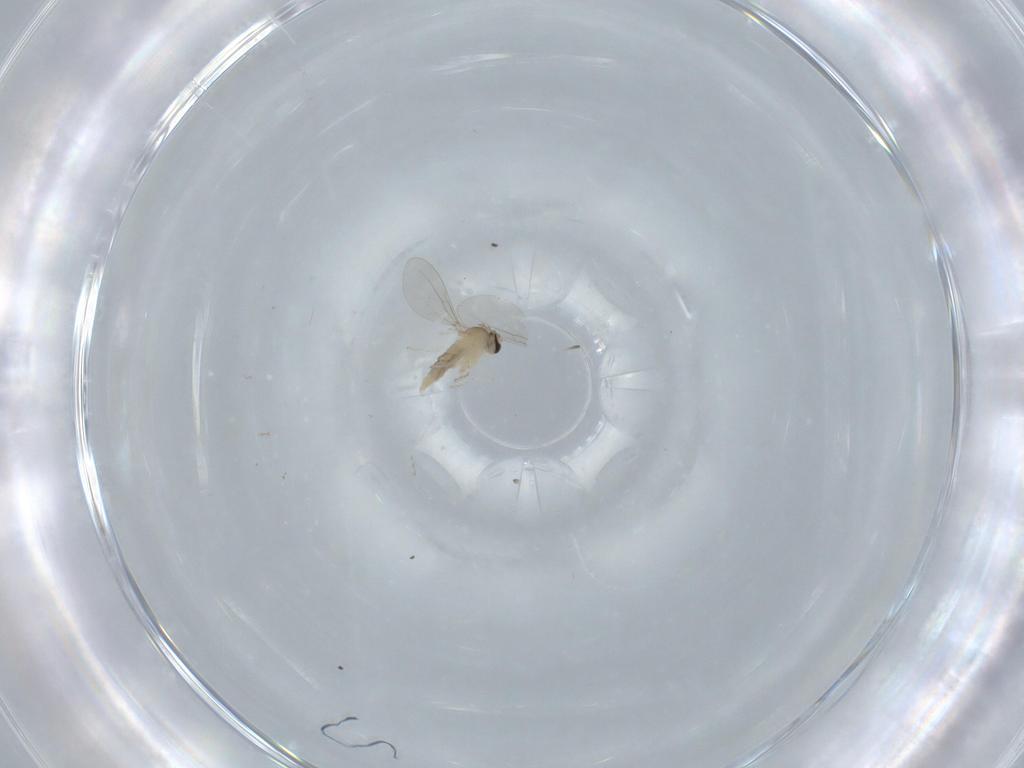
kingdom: Animalia
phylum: Arthropoda
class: Insecta
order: Diptera
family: Cecidomyiidae
